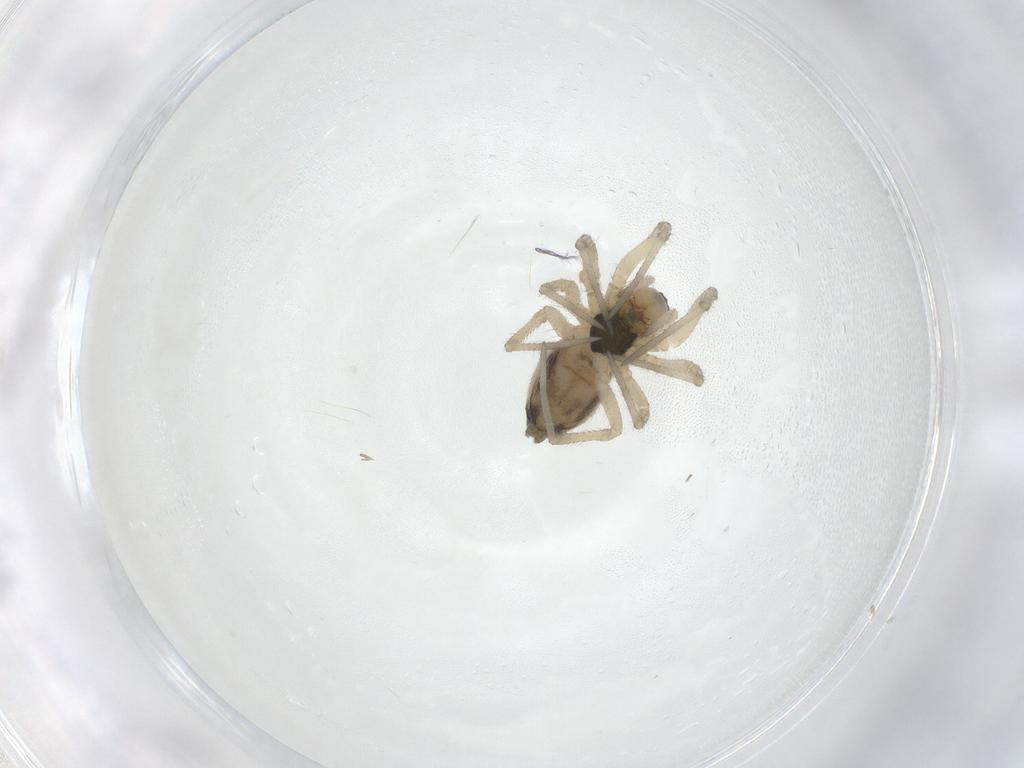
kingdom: Animalia
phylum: Arthropoda
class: Arachnida
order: Araneae
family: Linyphiidae
